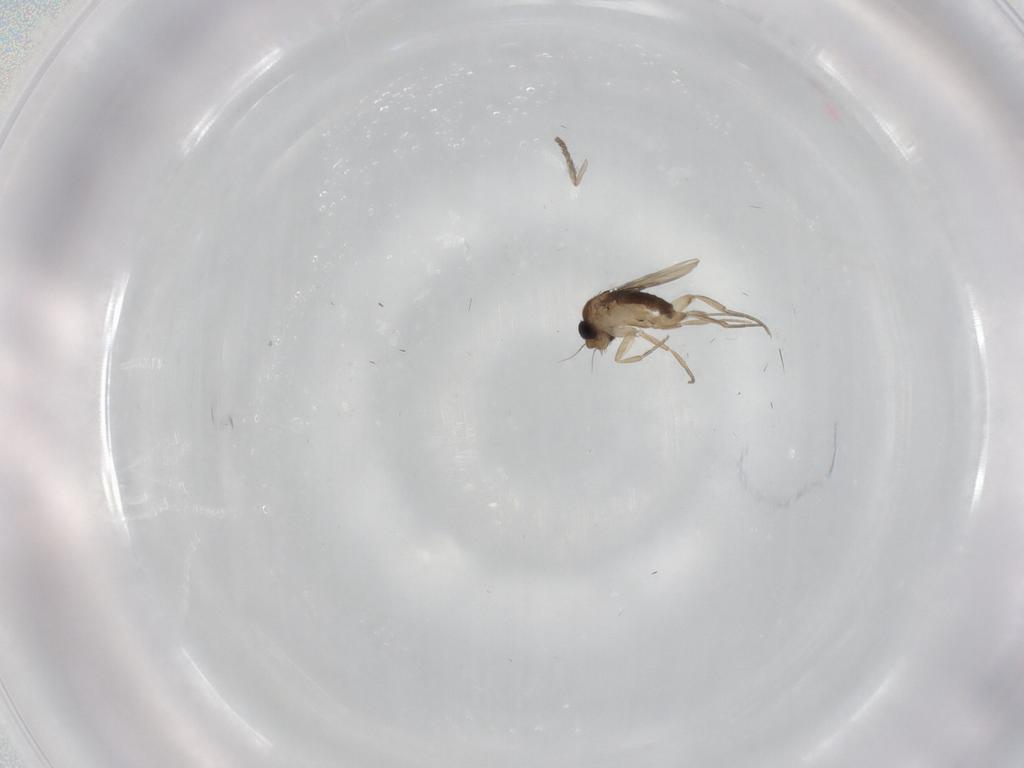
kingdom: Animalia
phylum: Arthropoda
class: Insecta
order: Diptera
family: Phoridae
